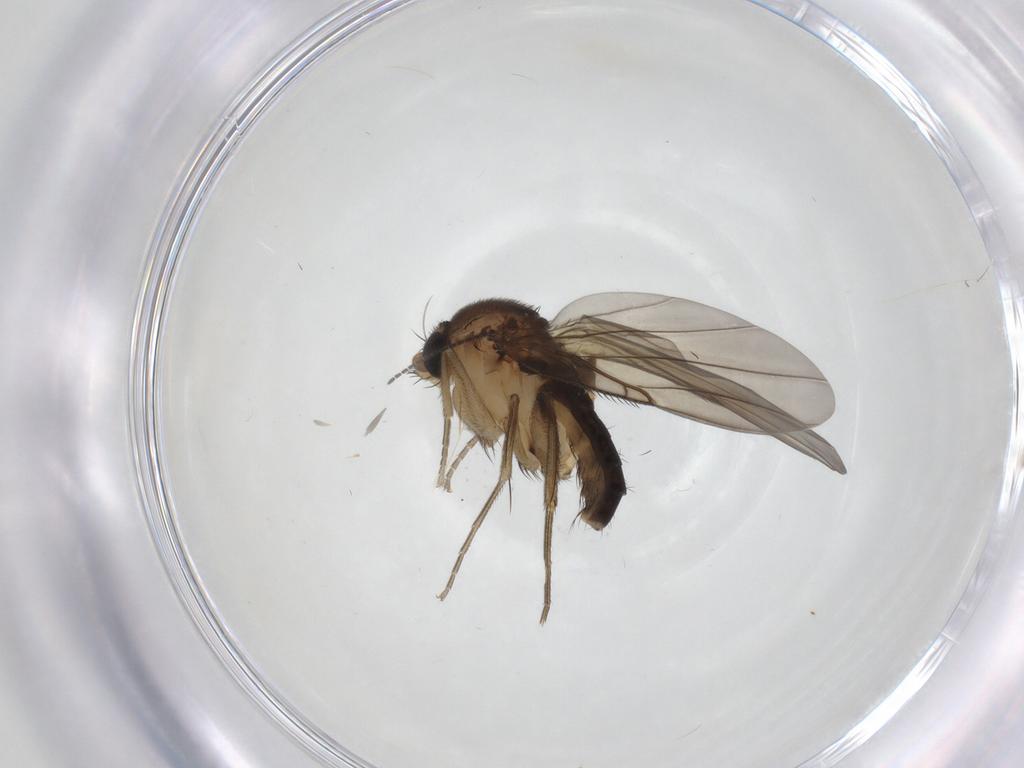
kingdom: Animalia
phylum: Arthropoda
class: Insecta
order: Diptera
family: Phoridae
